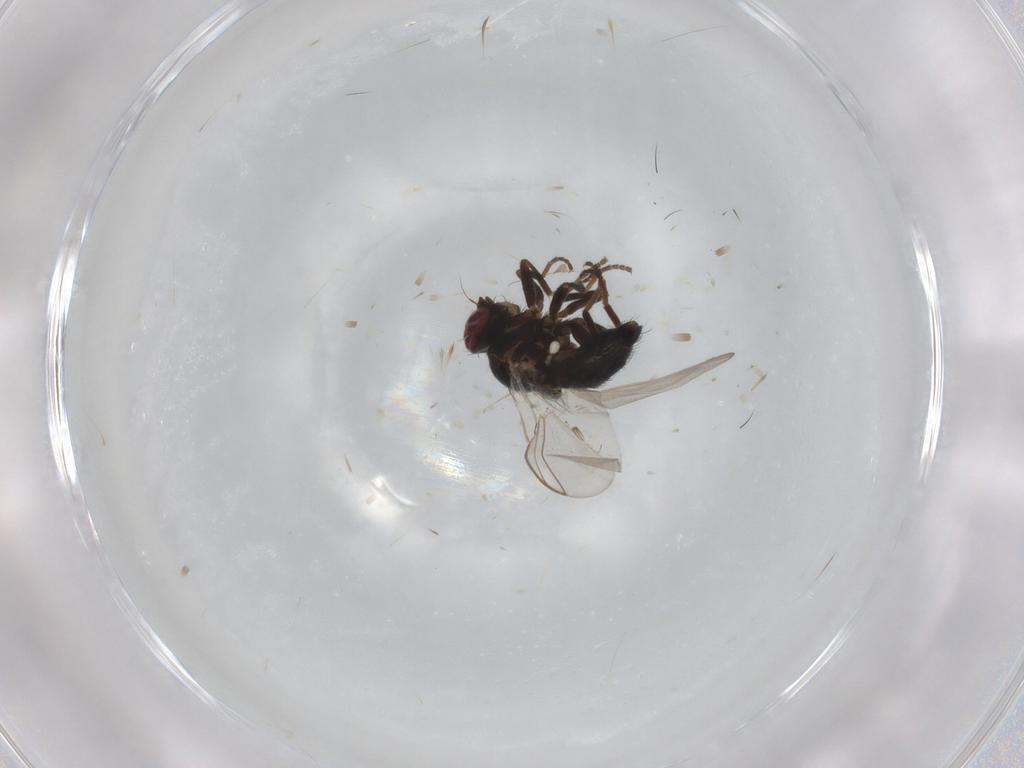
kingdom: Animalia
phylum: Arthropoda
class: Insecta
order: Diptera
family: Agromyzidae
